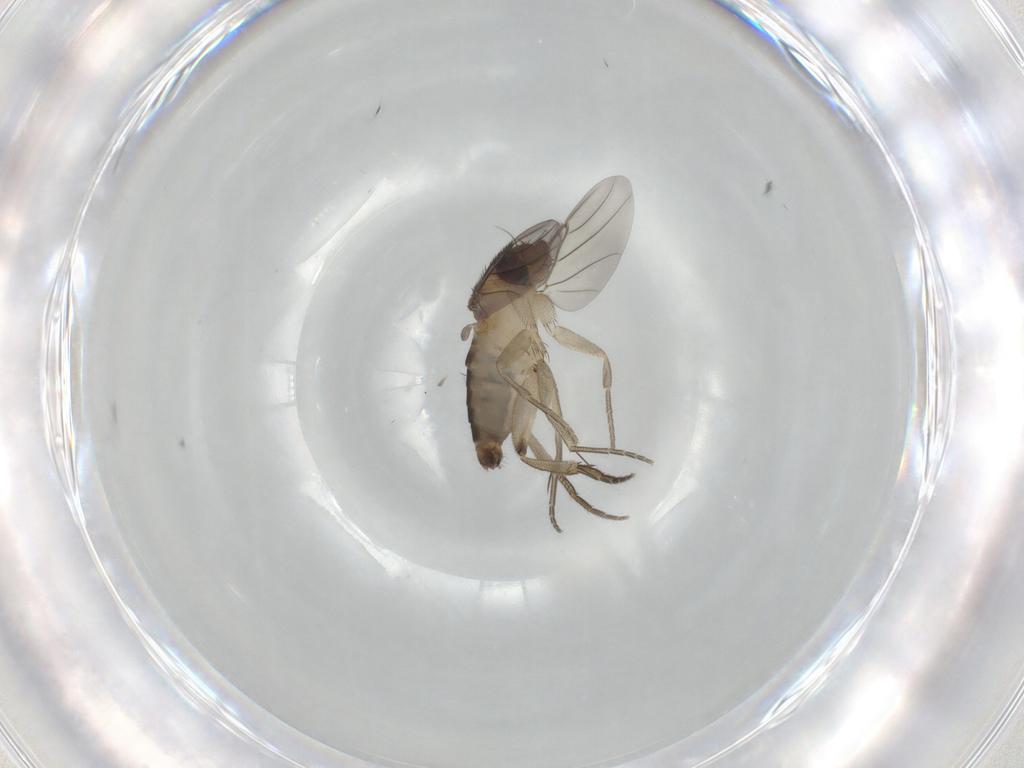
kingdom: Animalia
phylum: Arthropoda
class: Insecta
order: Diptera
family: Phoridae
